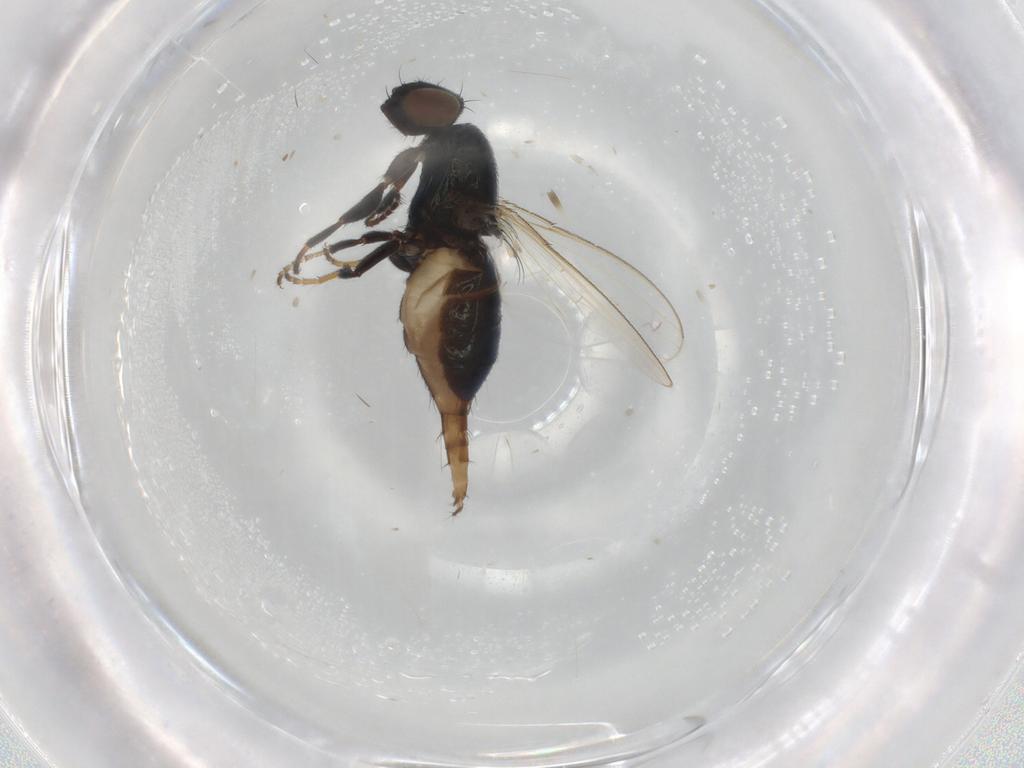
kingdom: Animalia
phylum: Arthropoda
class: Insecta
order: Diptera
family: Milichiidae
